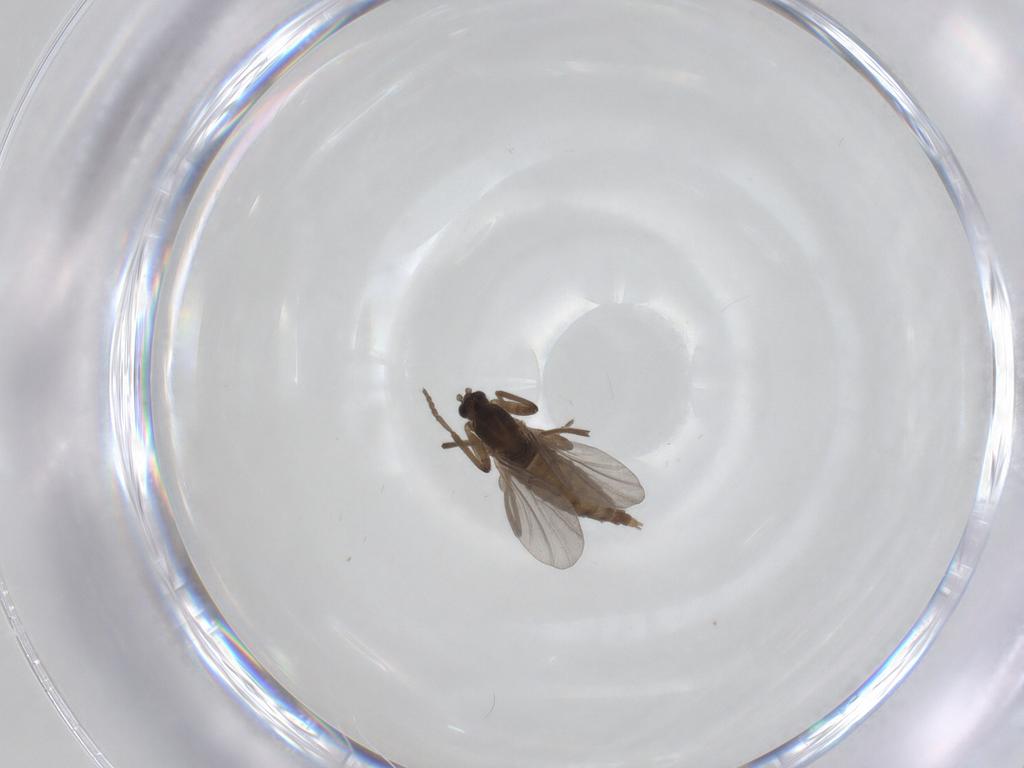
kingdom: Animalia
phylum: Arthropoda
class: Insecta
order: Diptera
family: Cecidomyiidae
